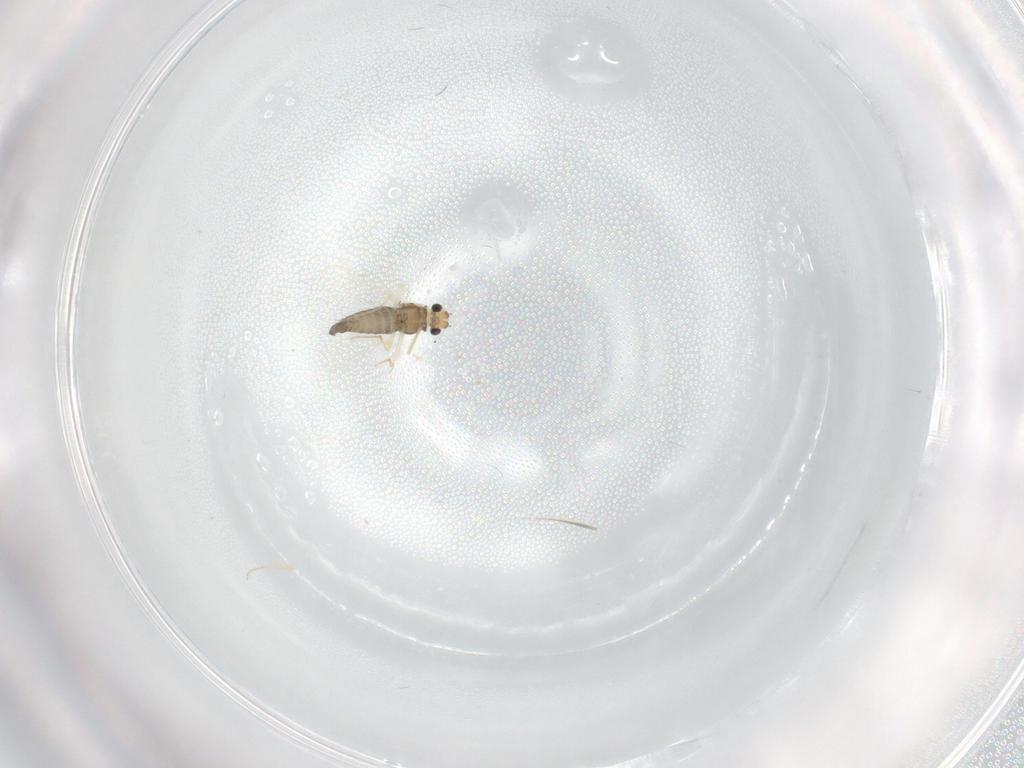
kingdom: Animalia
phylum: Arthropoda
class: Insecta
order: Diptera
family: Chironomidae
